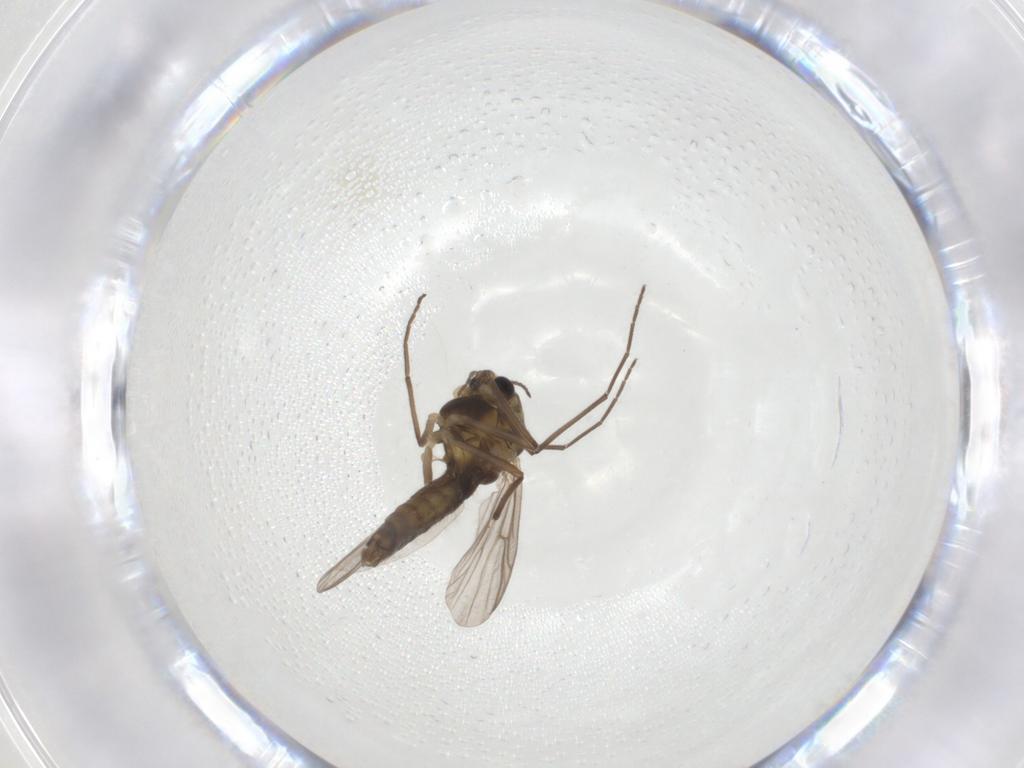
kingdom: Animalia
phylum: Arthropoda
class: Insecta
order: Diptera
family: Chironomidae
